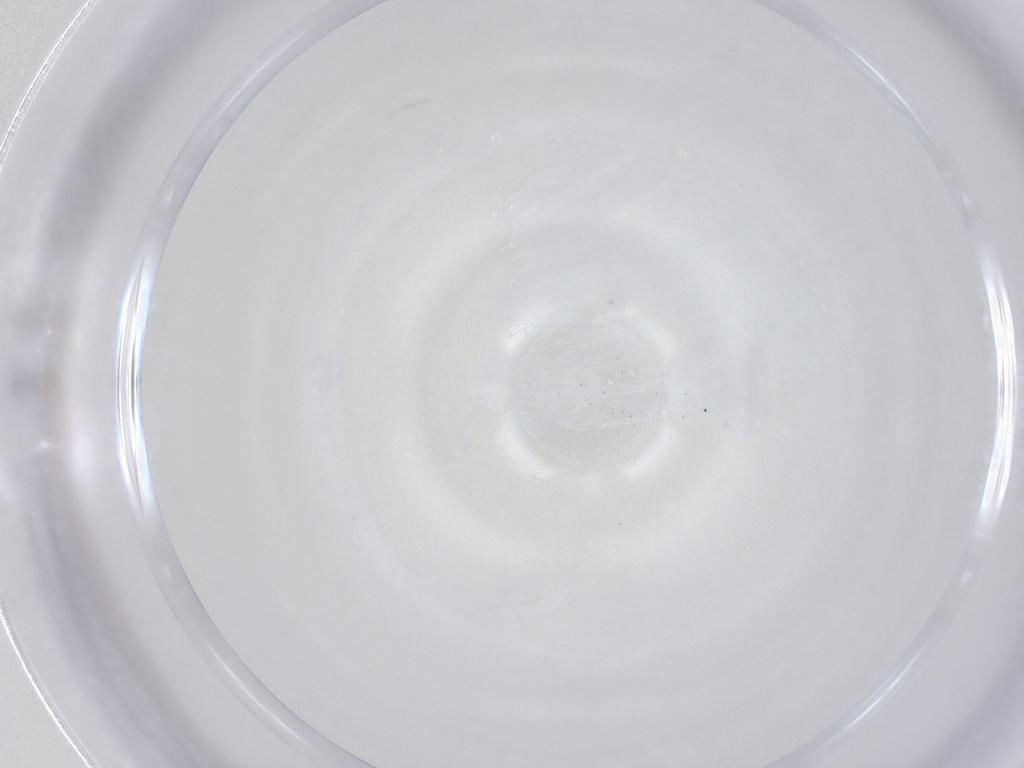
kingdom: Animalia
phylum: Arthropoda
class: Insecta
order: Diptera
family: Chironomidae
